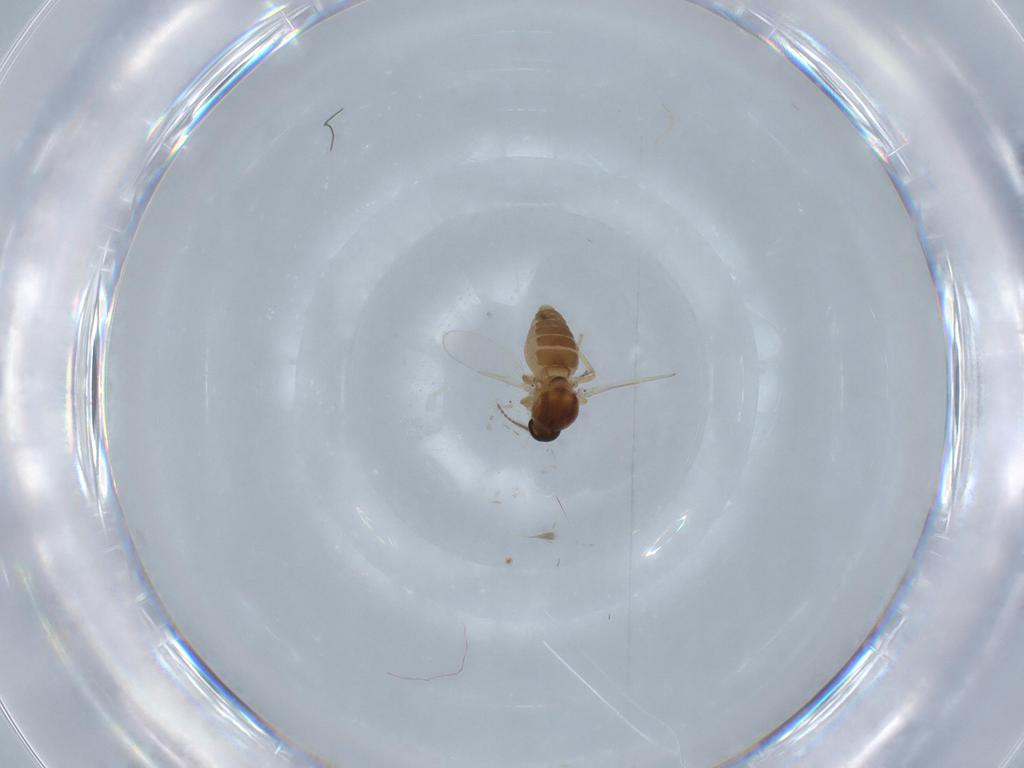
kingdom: Animalia
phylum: Arthropoda
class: Insecta
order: Diptera
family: Ceratopogonidae
